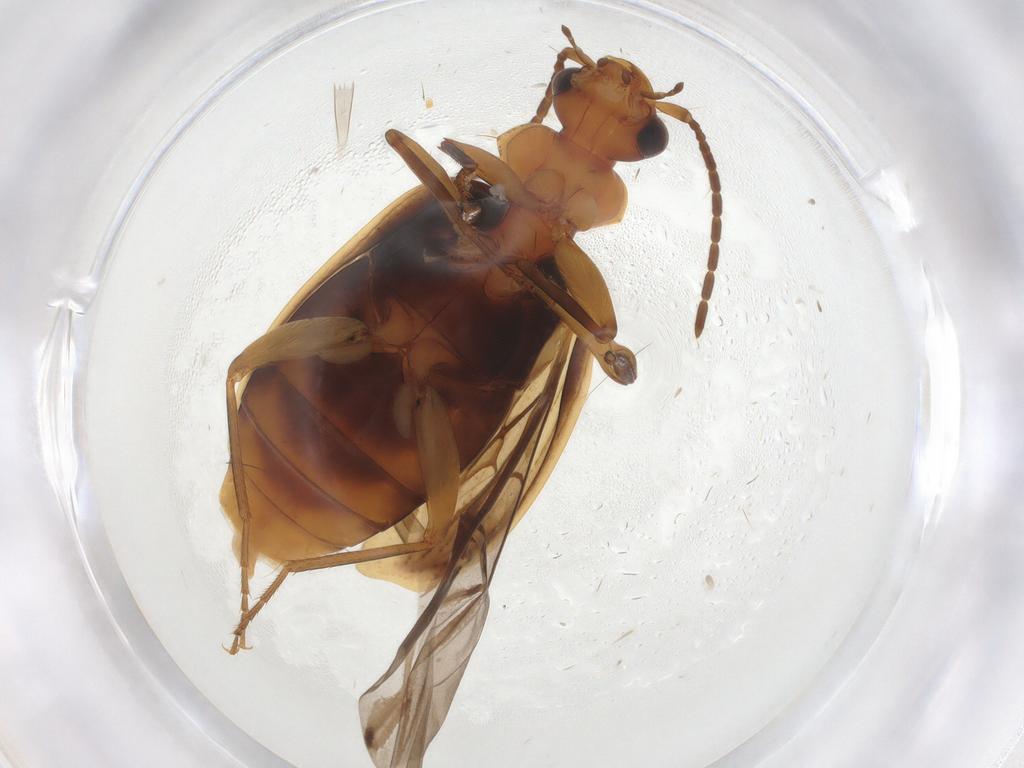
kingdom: Animalia
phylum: Arthropoda
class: Insecta
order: Coleoptera
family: Carabidae
